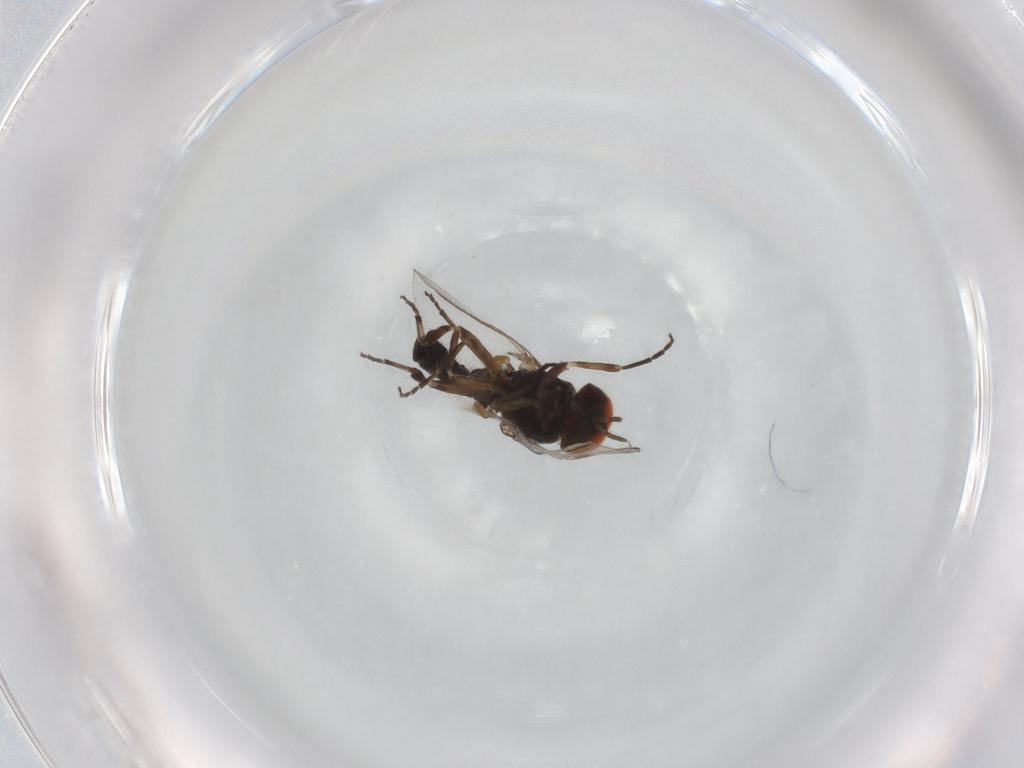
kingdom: Animalia
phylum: Arthropoda
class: Insecta
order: Diptera
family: Simuliidae
